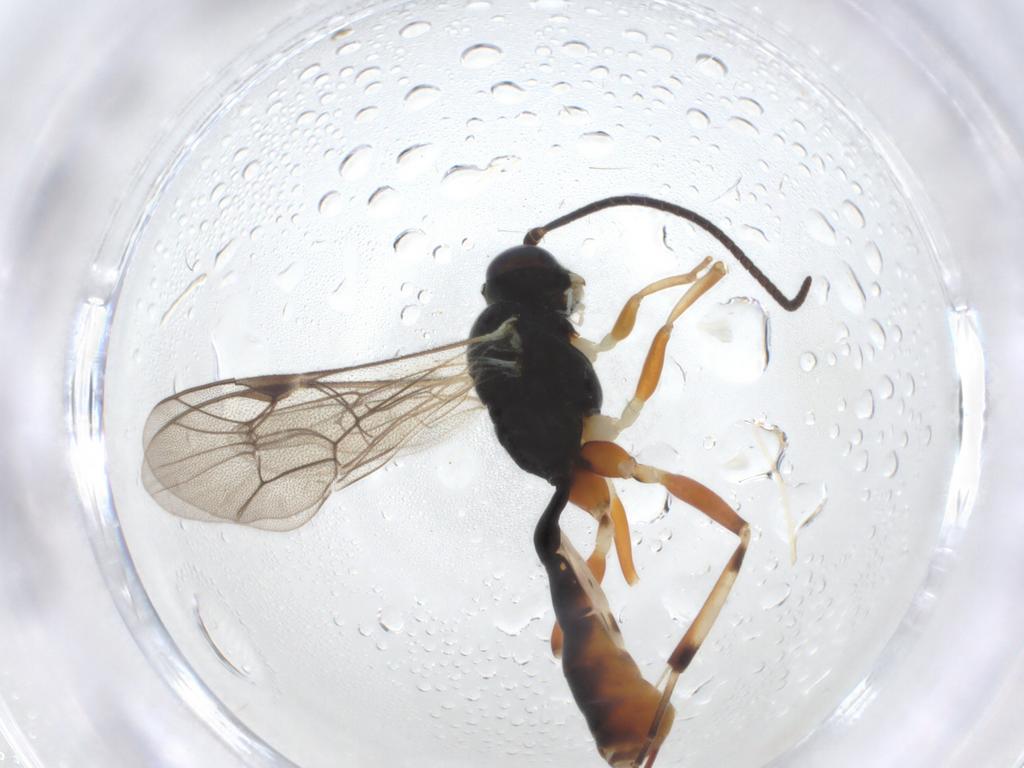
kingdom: Animalia
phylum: Arthropoda
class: Insecta
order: Hymenoptera
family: Ichneumonidae
